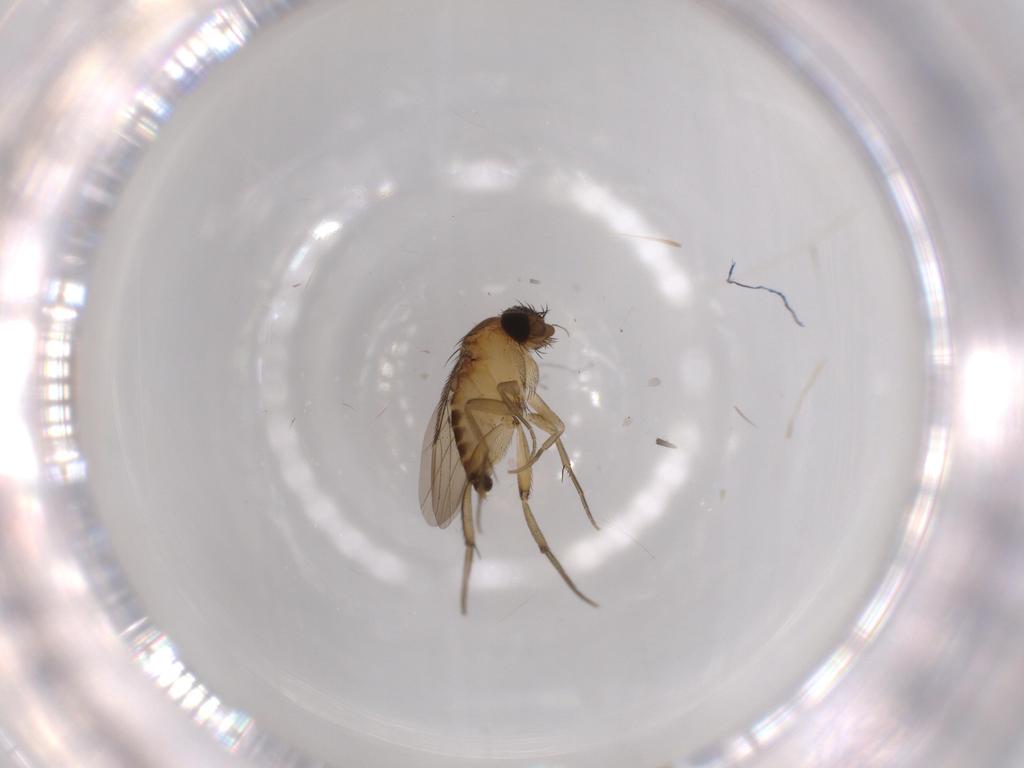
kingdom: Animalia
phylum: Arthropoda
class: Insecta
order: Diptera
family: Phoridae
